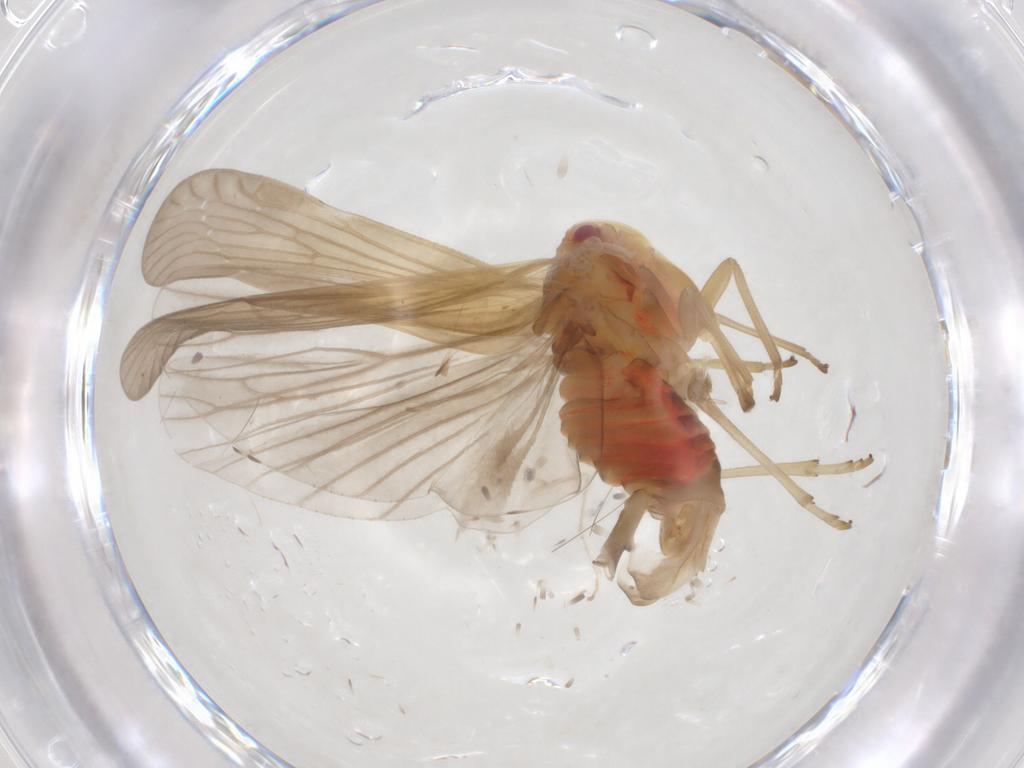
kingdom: Animalia
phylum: Arthropoda
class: Insecta
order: Hemiptera
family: Derbidae
